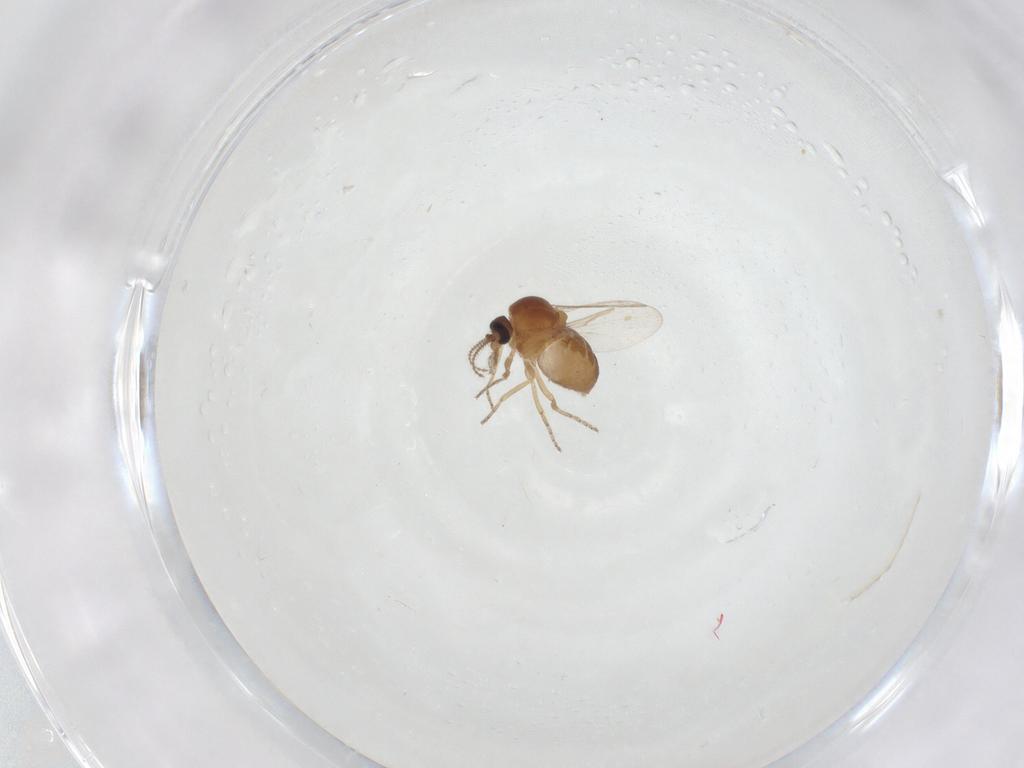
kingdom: Animalia
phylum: Arthropoda
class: Insecta
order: Diptera
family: Ceratopogonidae
